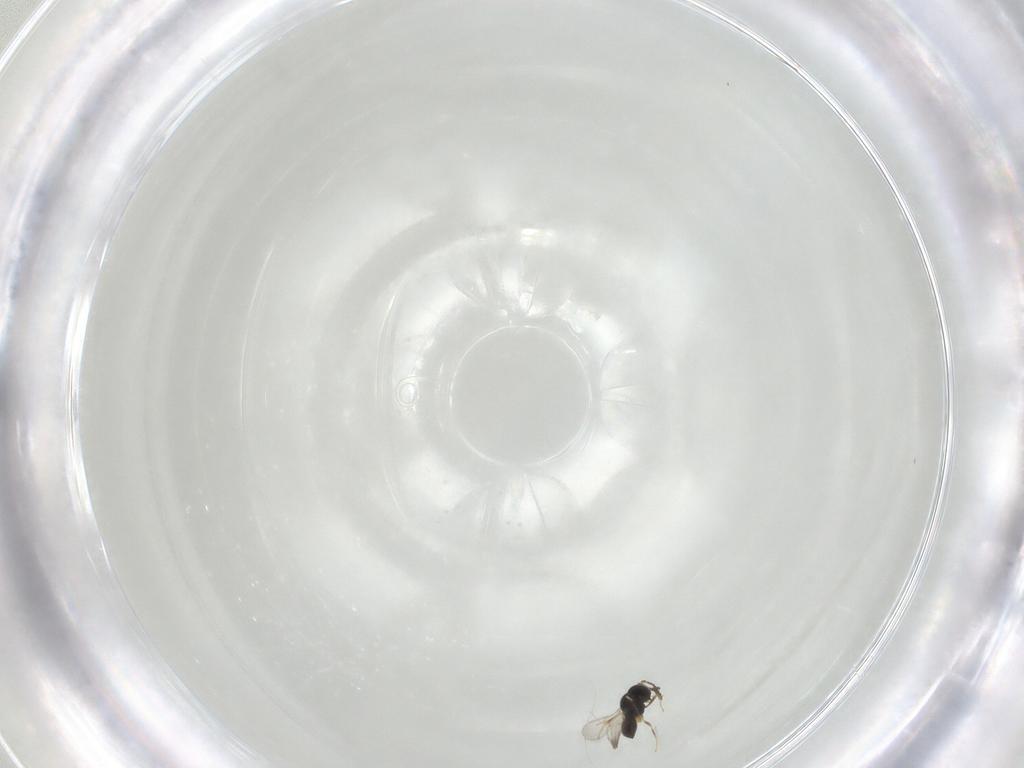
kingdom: Animalia
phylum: Arthropoda
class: Insecta
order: Hymenoptera
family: Scelionidae
